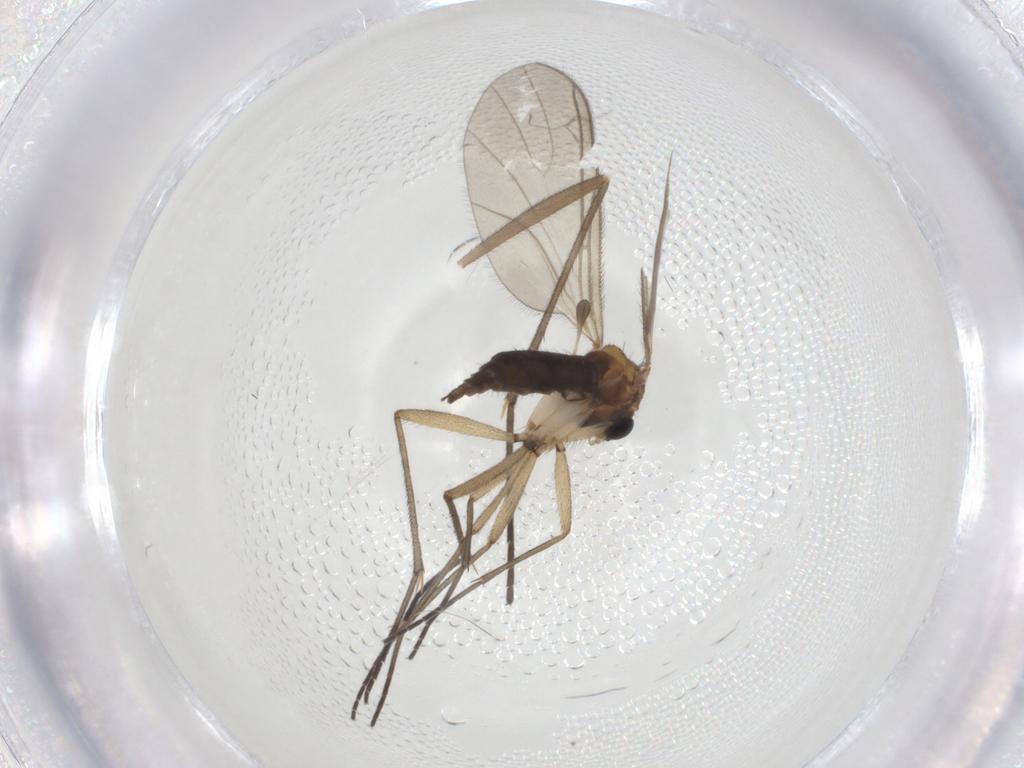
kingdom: Animalia
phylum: Arthropoda
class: Insecta
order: Diptera
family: Sciaridae
